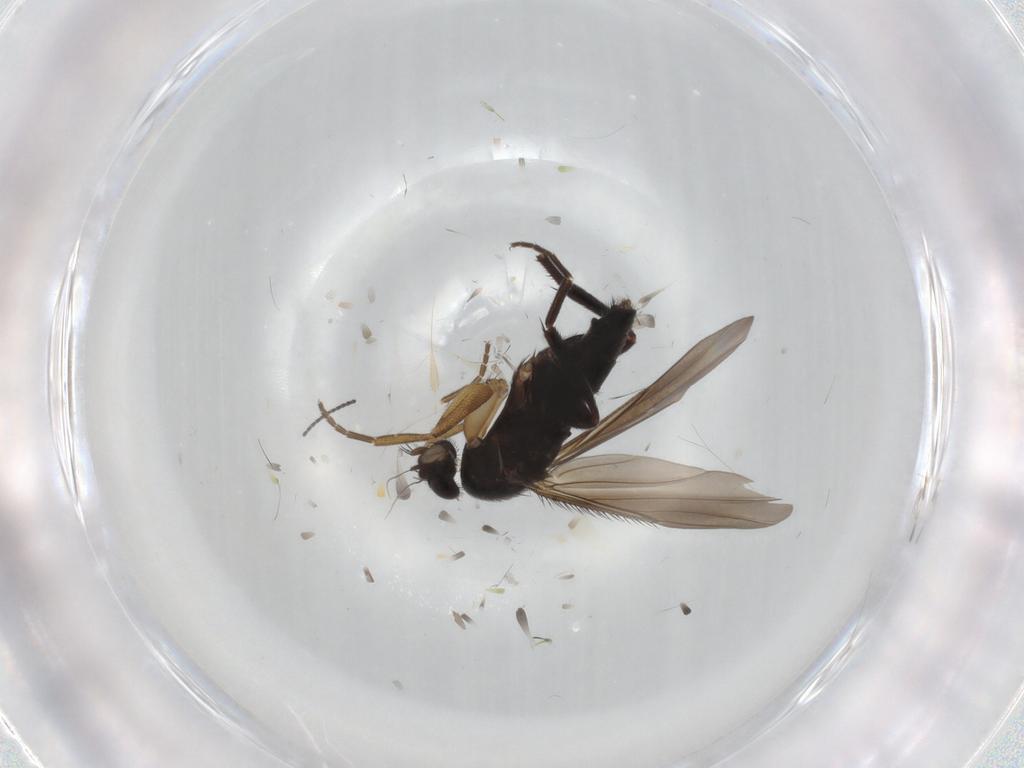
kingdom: Animalia
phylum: Arthropoda
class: Insecta
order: Diptera
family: Phoridae
